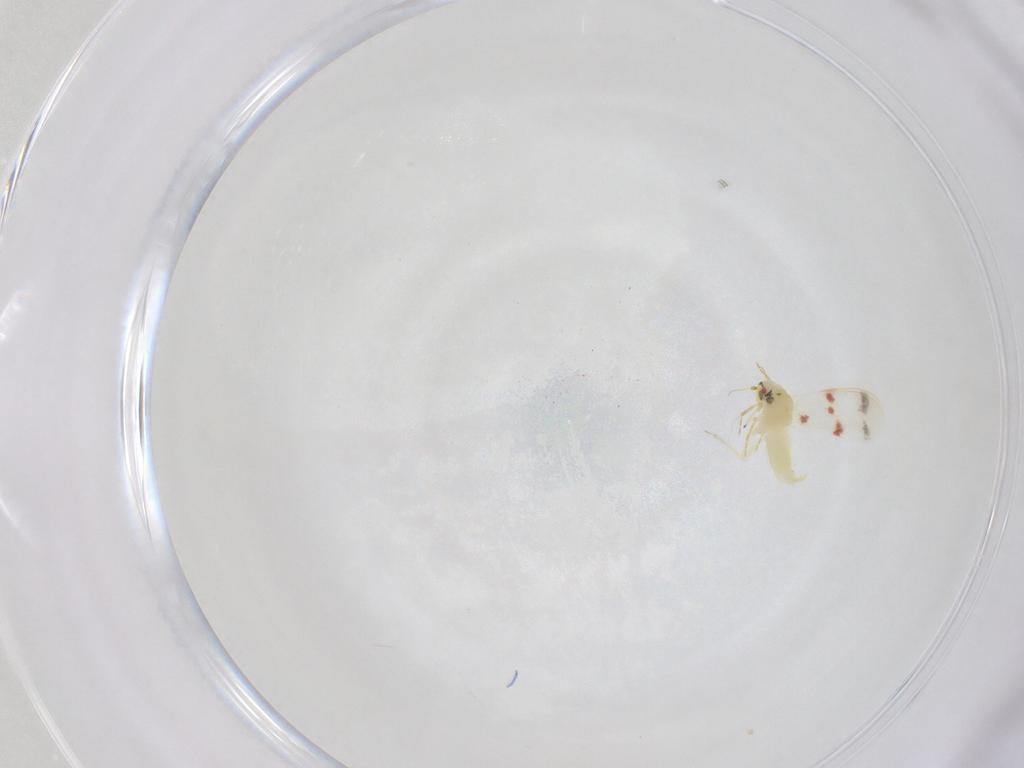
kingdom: Animalia
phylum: Arthropoda
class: Insecta
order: Hemiptera
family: Aleyrodidae
